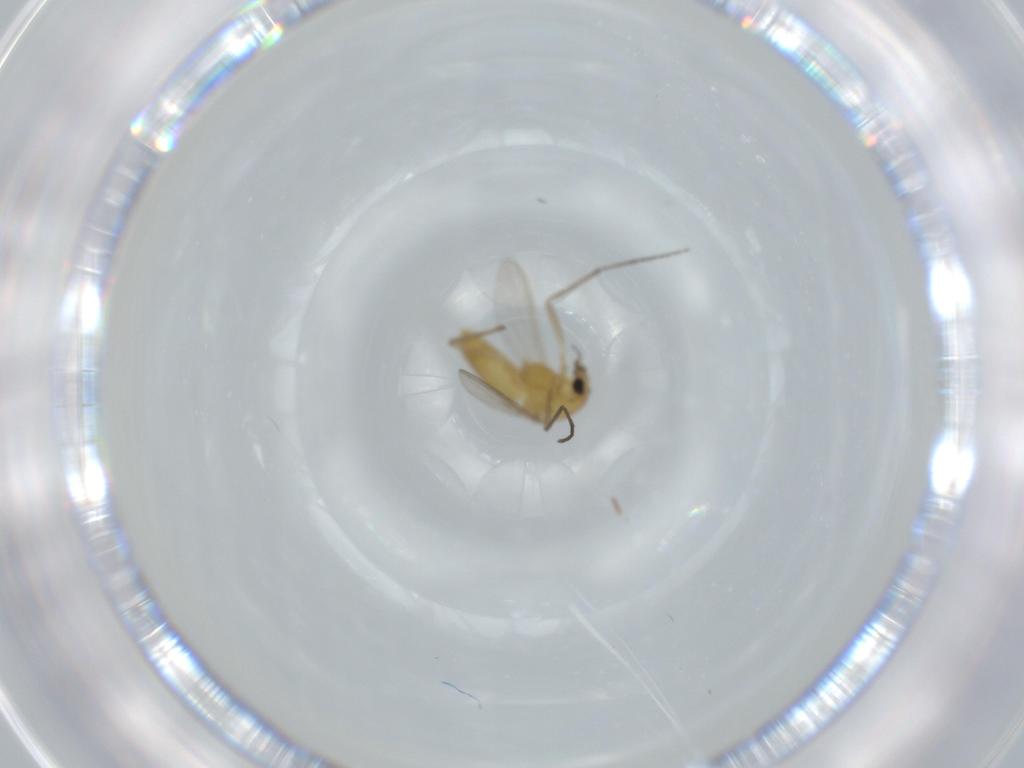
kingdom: Animalia
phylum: Arthropoda
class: Insecta
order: Diptera
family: Chironomidae
